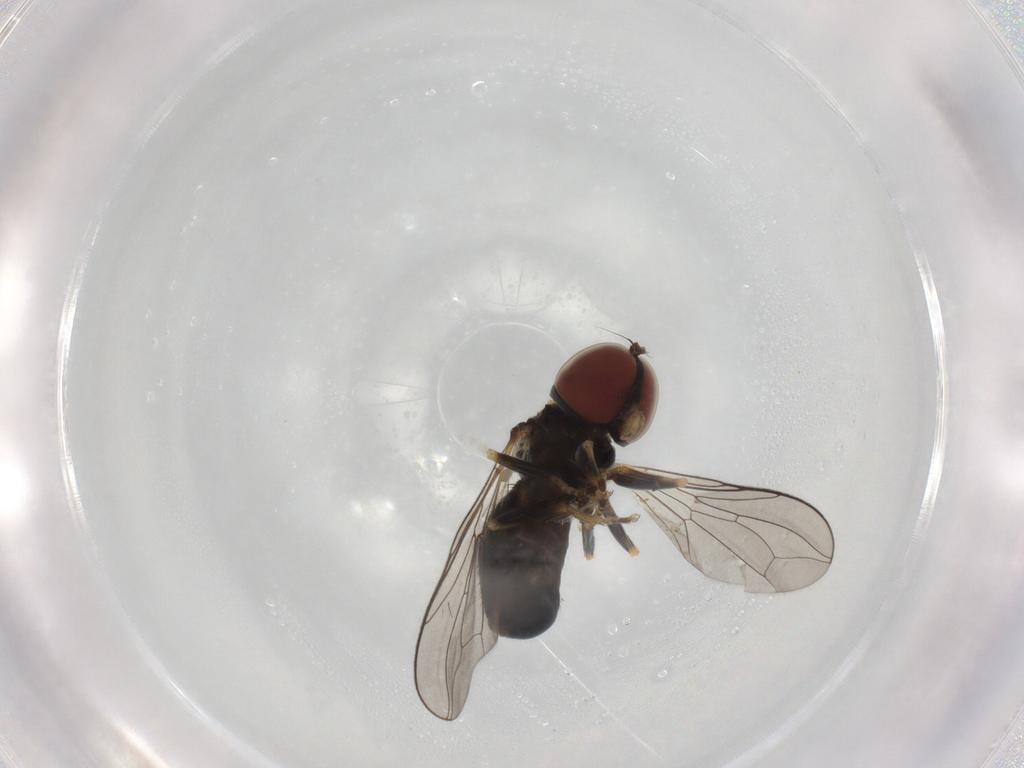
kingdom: Animalia
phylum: Arthropoda
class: Insecta
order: Diptera
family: Pipunculidae
